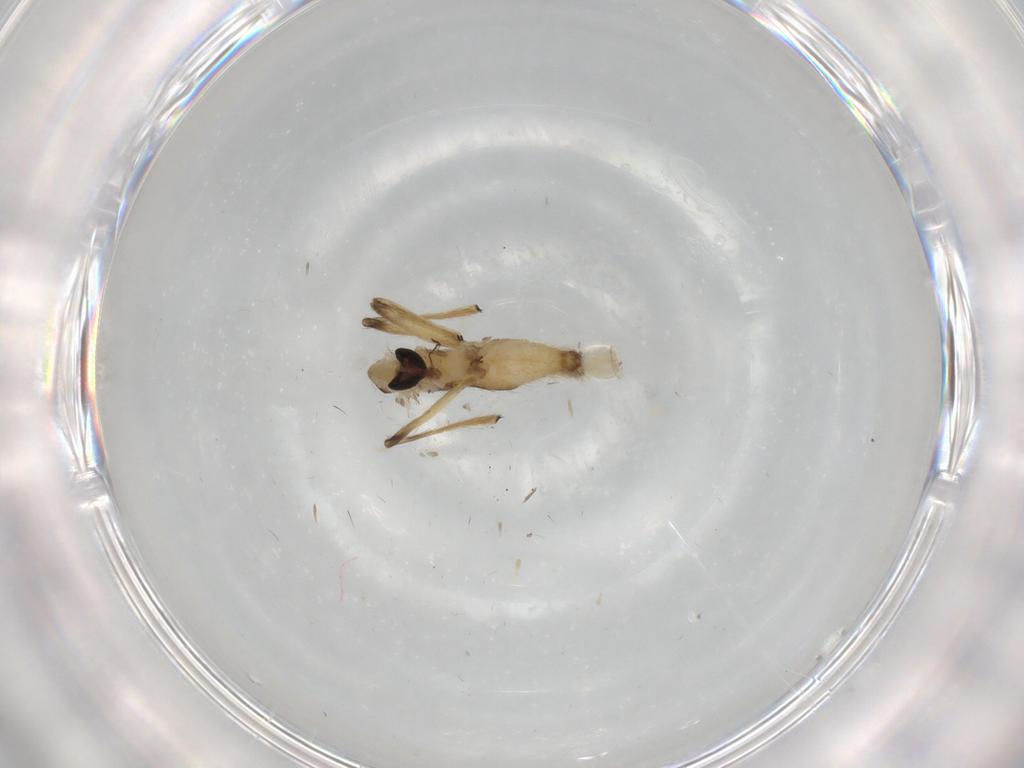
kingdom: Animalia
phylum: Arthropoda
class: Insecta
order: Diptera
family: Chironomidae
